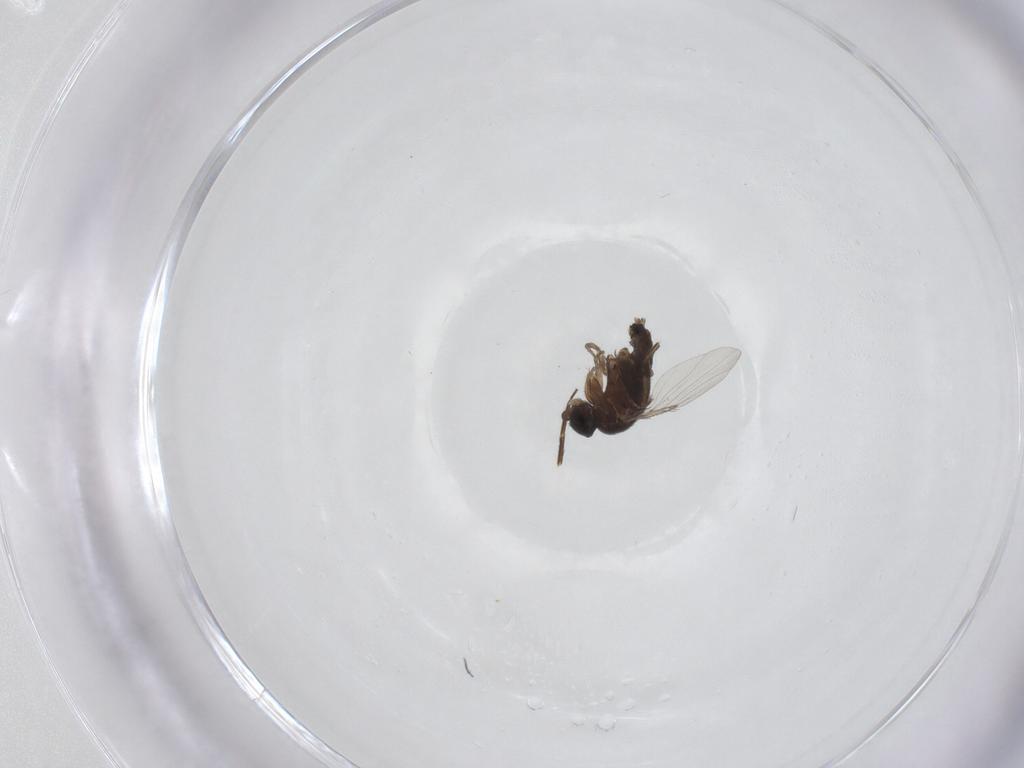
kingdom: Animalia
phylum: Arthropoda
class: Insecta
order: Diptera
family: Phoridae
